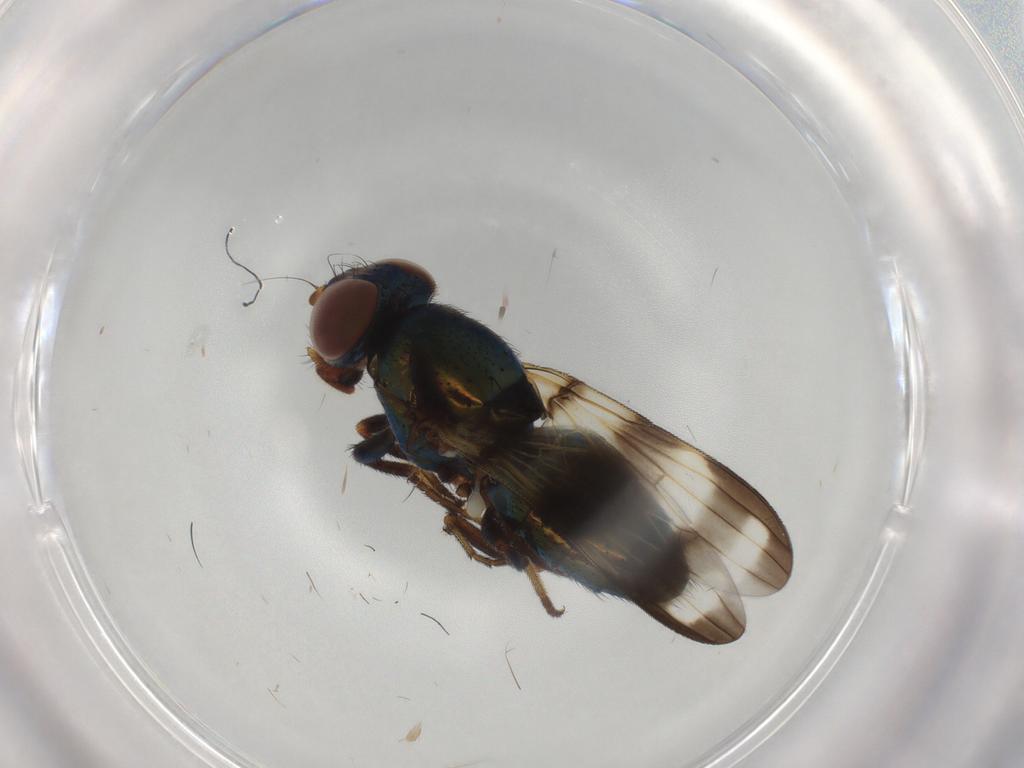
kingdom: Animalia
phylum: Arthropoda
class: Insecta
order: Diptera
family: Ulidiidae
